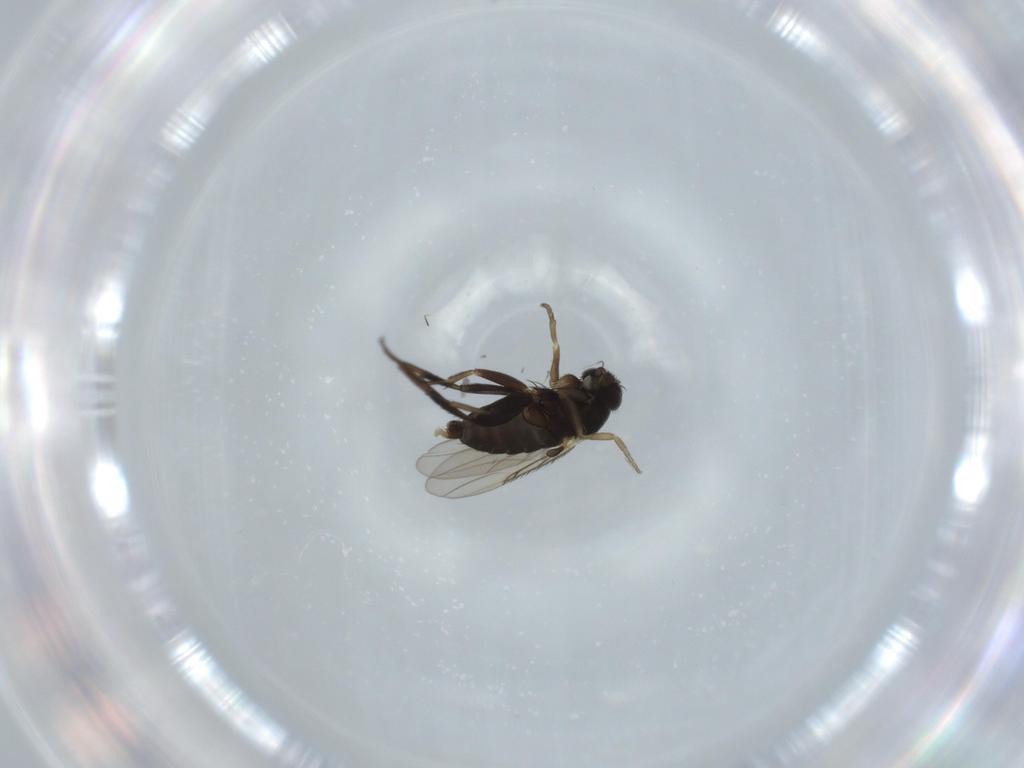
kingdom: Animalia
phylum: Arthropoda
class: Insecta
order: Diptera
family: Phoridae
